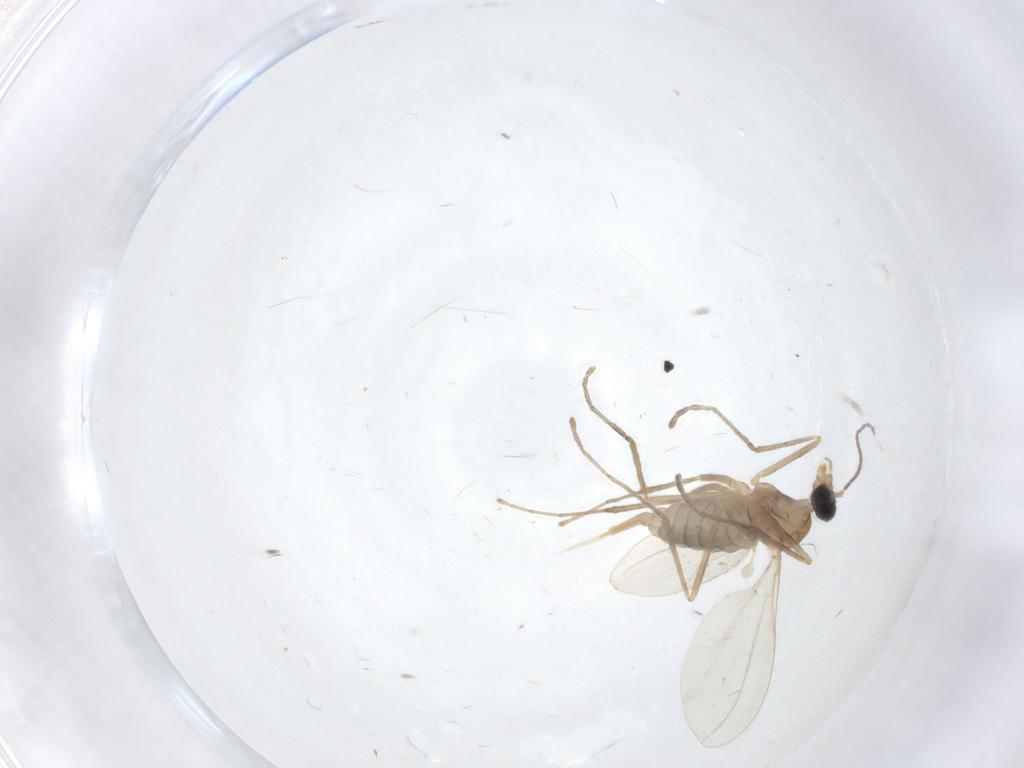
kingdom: Animalia
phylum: Arthropoda
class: Insecta
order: Diptera
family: Cecidomyiidae
